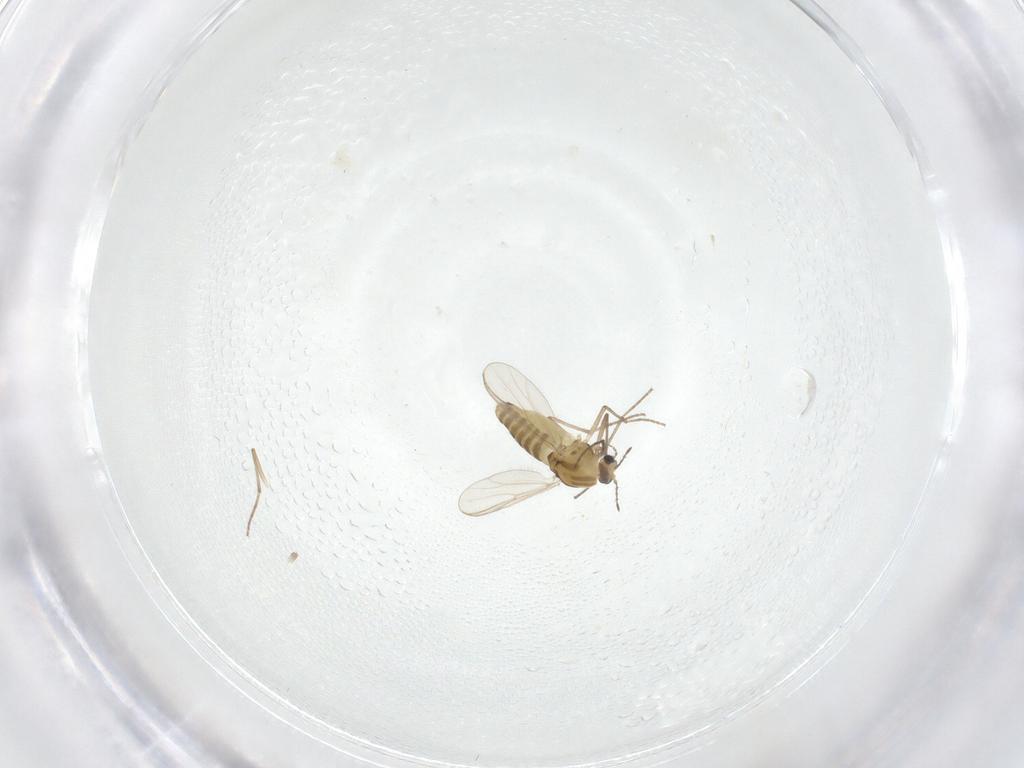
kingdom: Animalia
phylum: Arthropoda
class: Insecta
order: Diptera
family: Chironomidae
